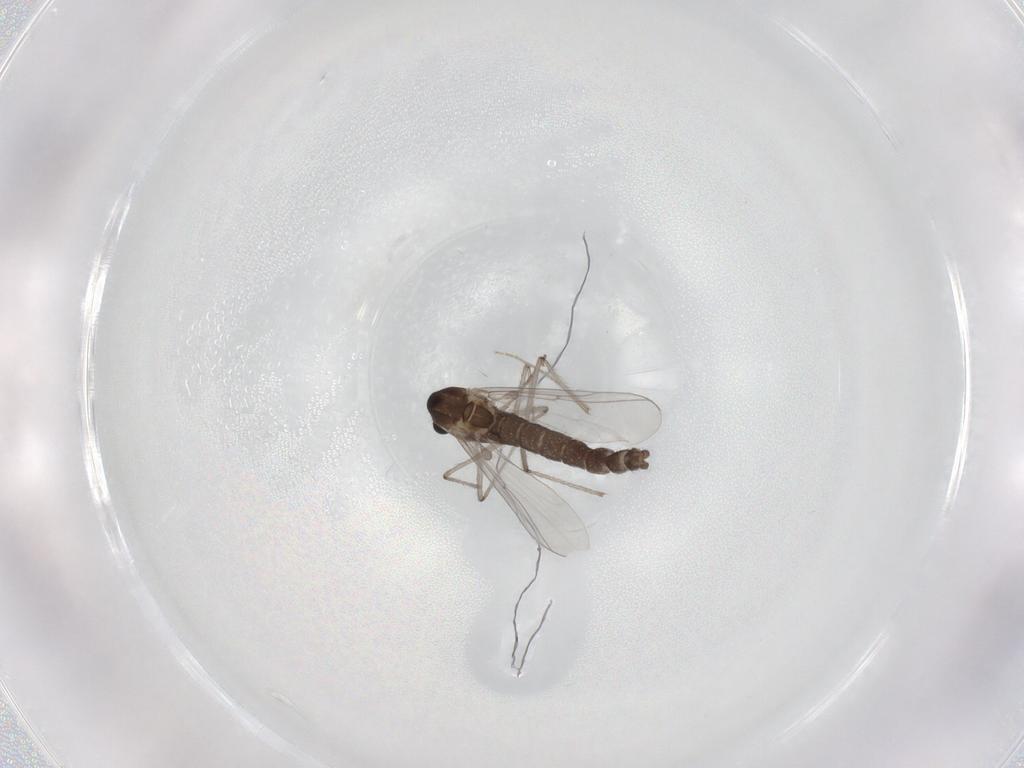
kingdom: Animalia
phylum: Arthropoda
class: Insecta
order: Diptera
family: Chironomidae
